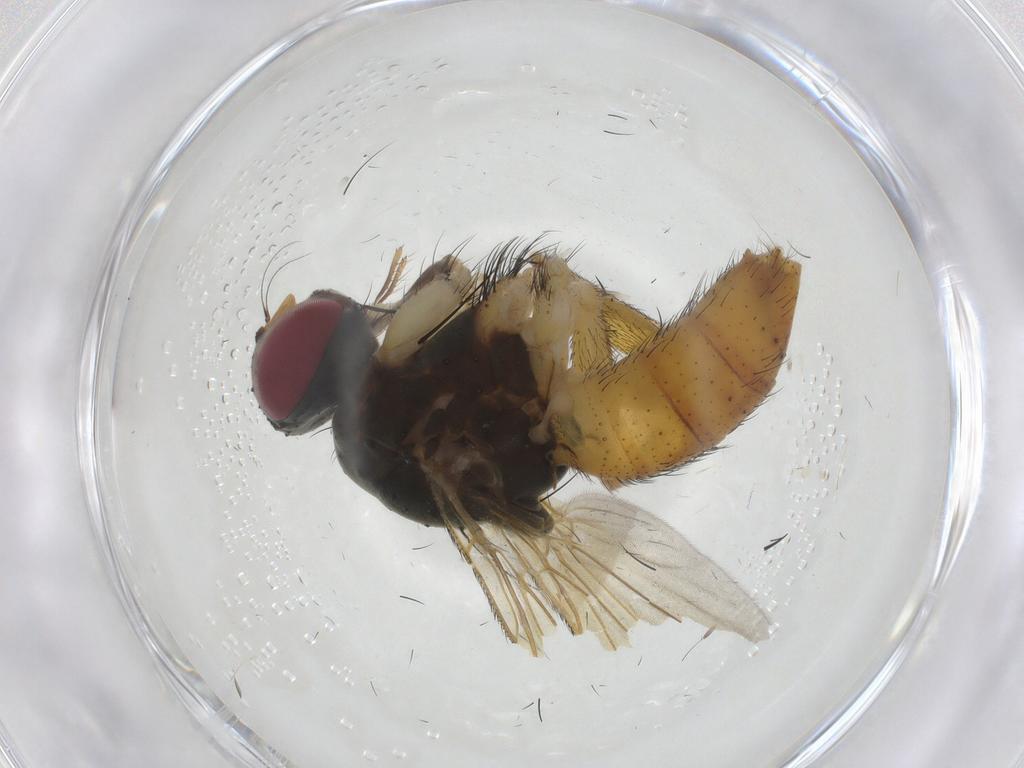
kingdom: Animalia
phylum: Arthropoda
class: Insecta
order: Diptera
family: Muscidae
